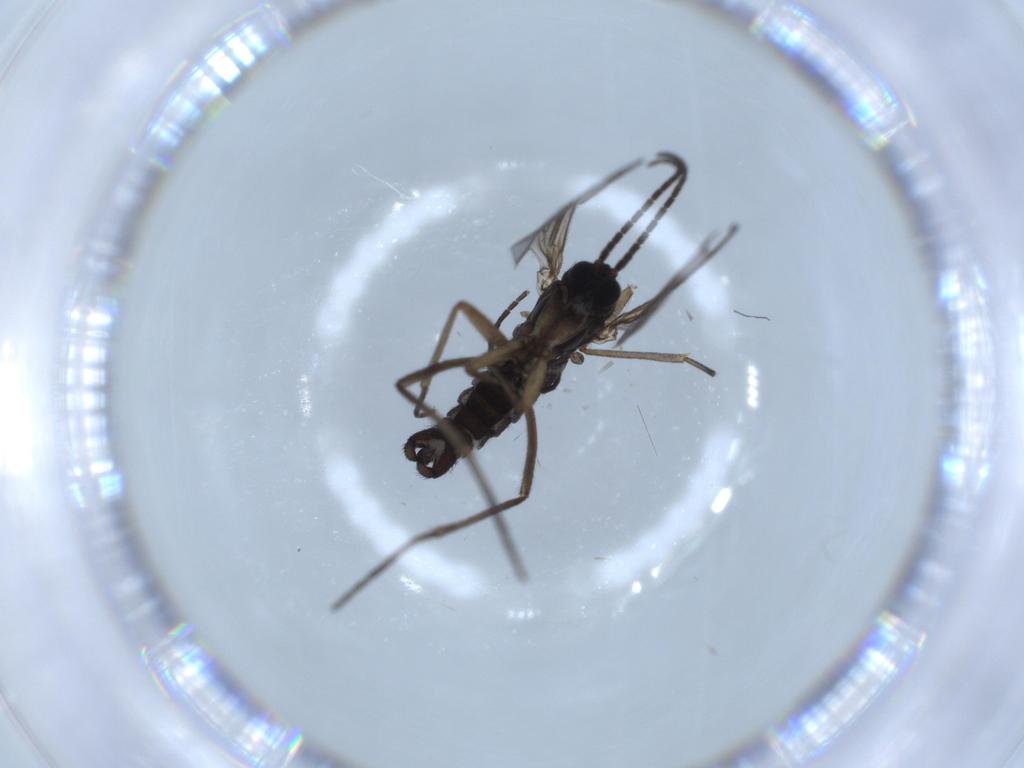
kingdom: Animalia
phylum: Arthropoda
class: Insecta
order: Diptera
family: Sciaridae
